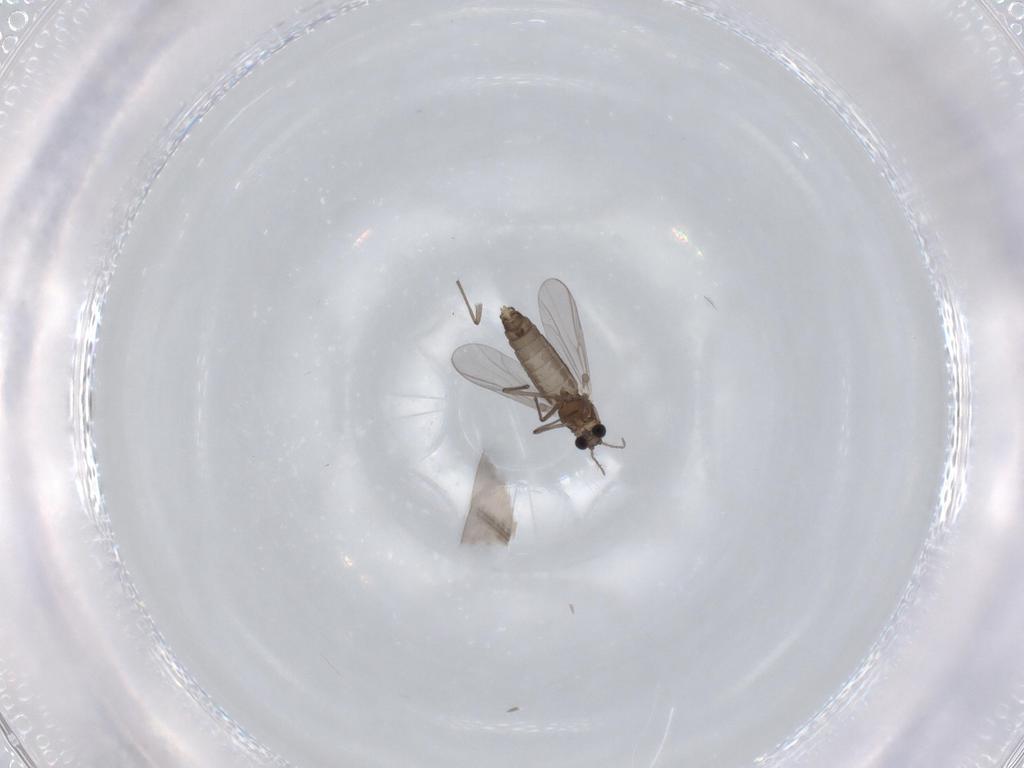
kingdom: Animalia
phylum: Arthropoda
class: Insecta
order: Diptera
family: Chironomidae
